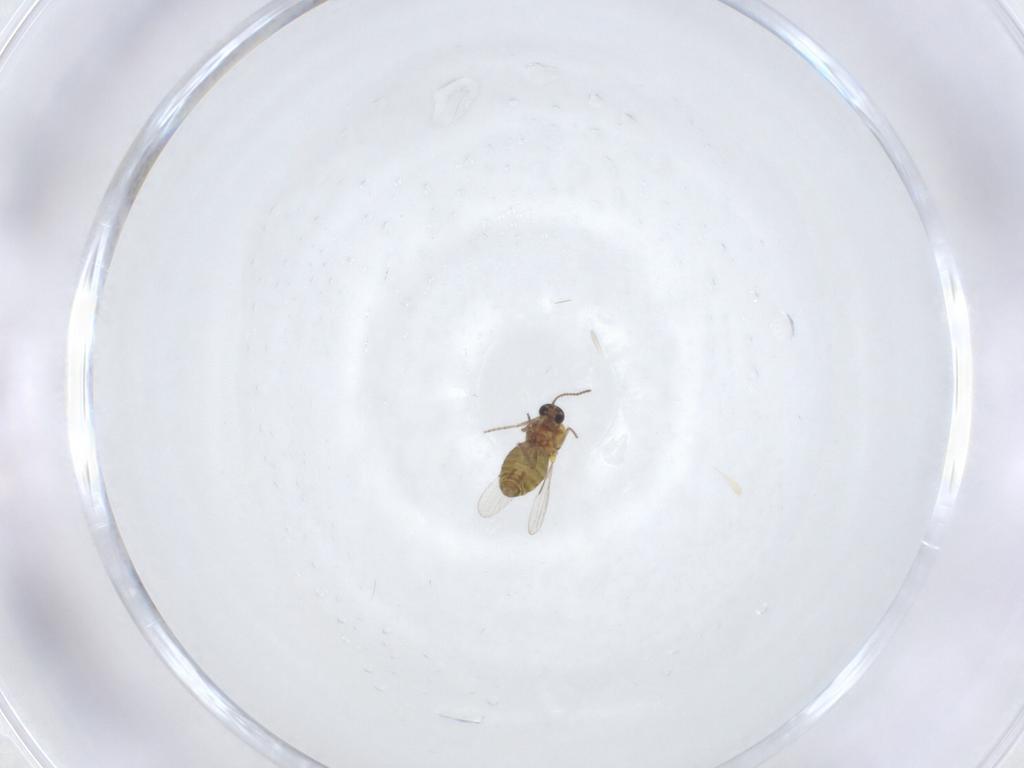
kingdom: Animalia
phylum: Arthropoda
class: Insecta
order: Diptera
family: Ceratopogonidae
